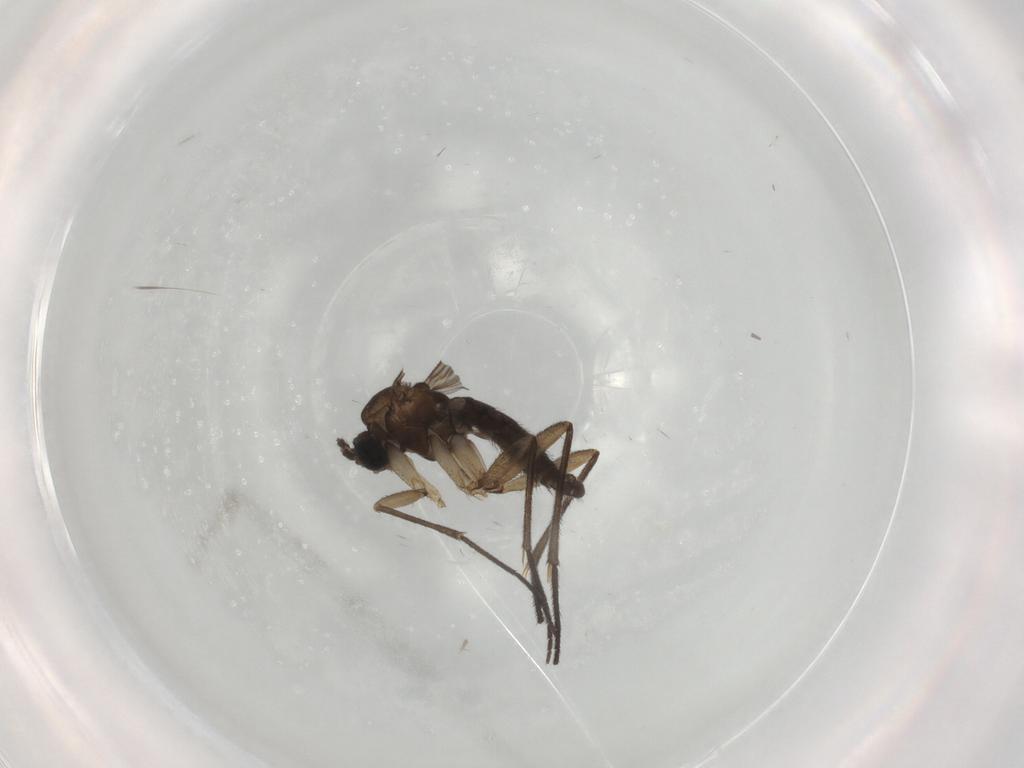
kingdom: Animalia
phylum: Arthropoda
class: Insecta
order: Diptera
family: Sciaridae
